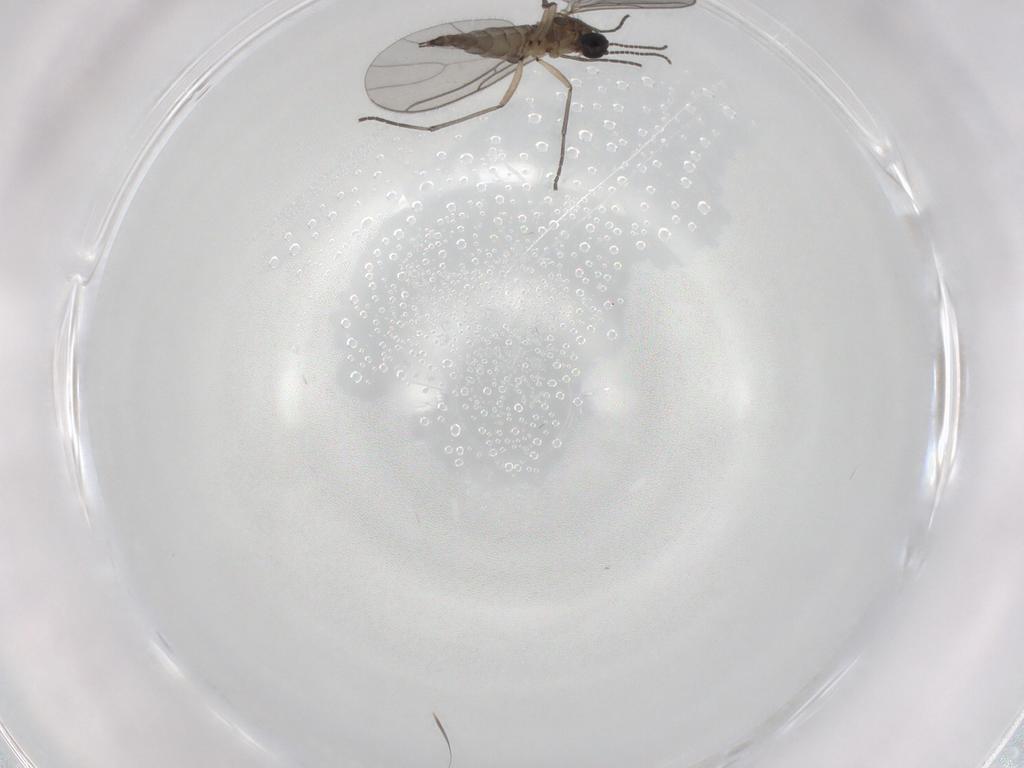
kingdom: Animalia
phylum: Arthropoda
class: Insecta
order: Diptera
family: Sciaridae
